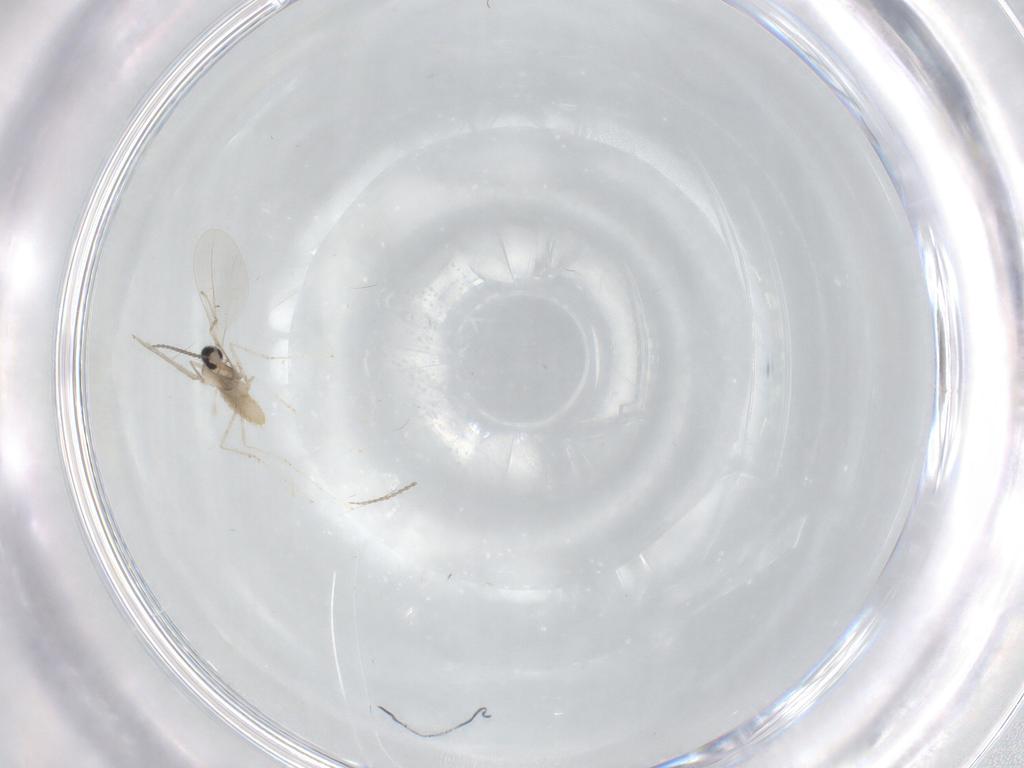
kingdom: Animalia
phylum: Arthropoda
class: Insecta
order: Diptera
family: Cecidomyiidae
